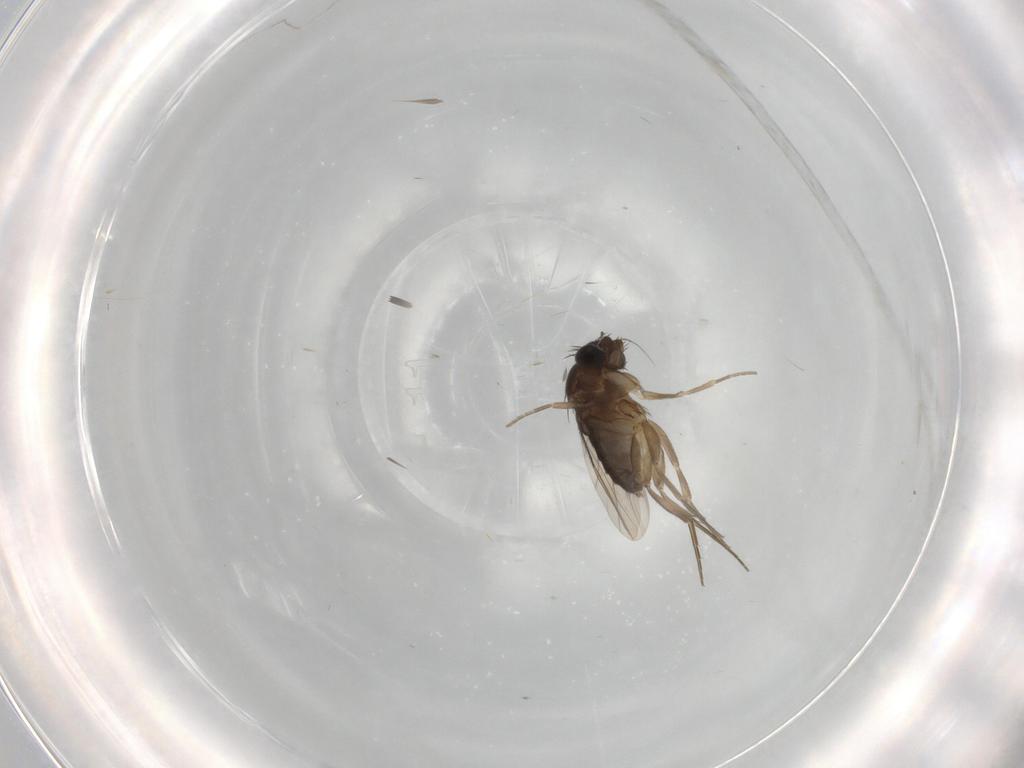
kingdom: Animalia
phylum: Arthropoda
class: Insecta
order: Diptera
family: Phoridae
